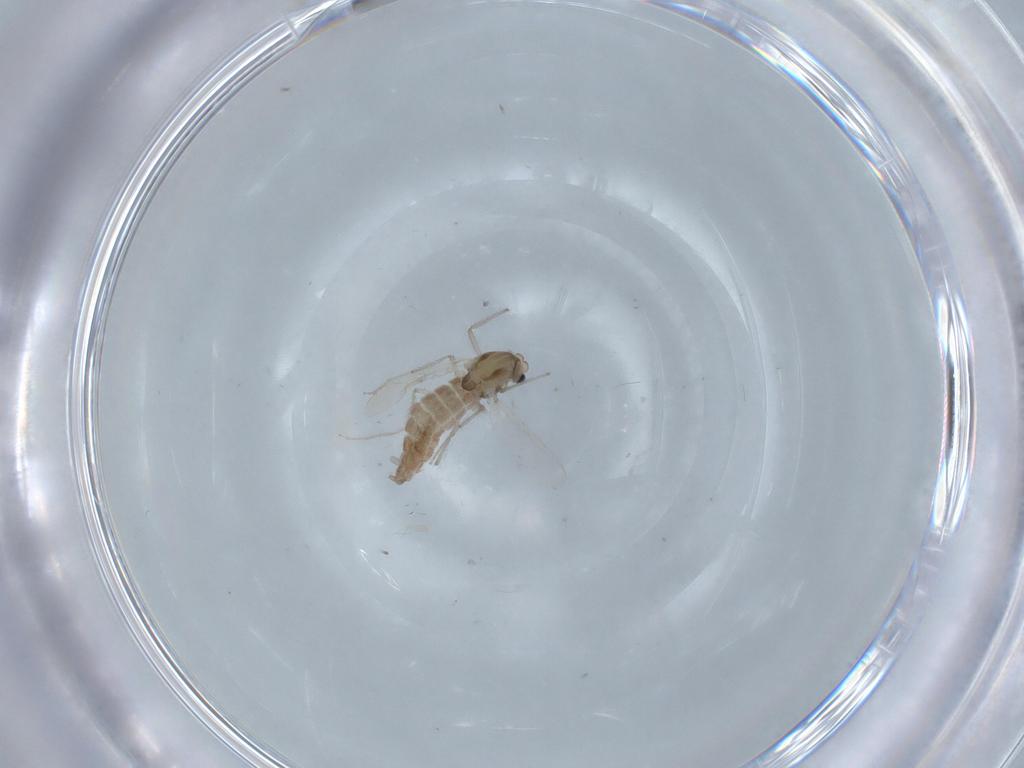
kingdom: Animalia
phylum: Arthropoda
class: Insecta
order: Diptera
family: Chironomidae
